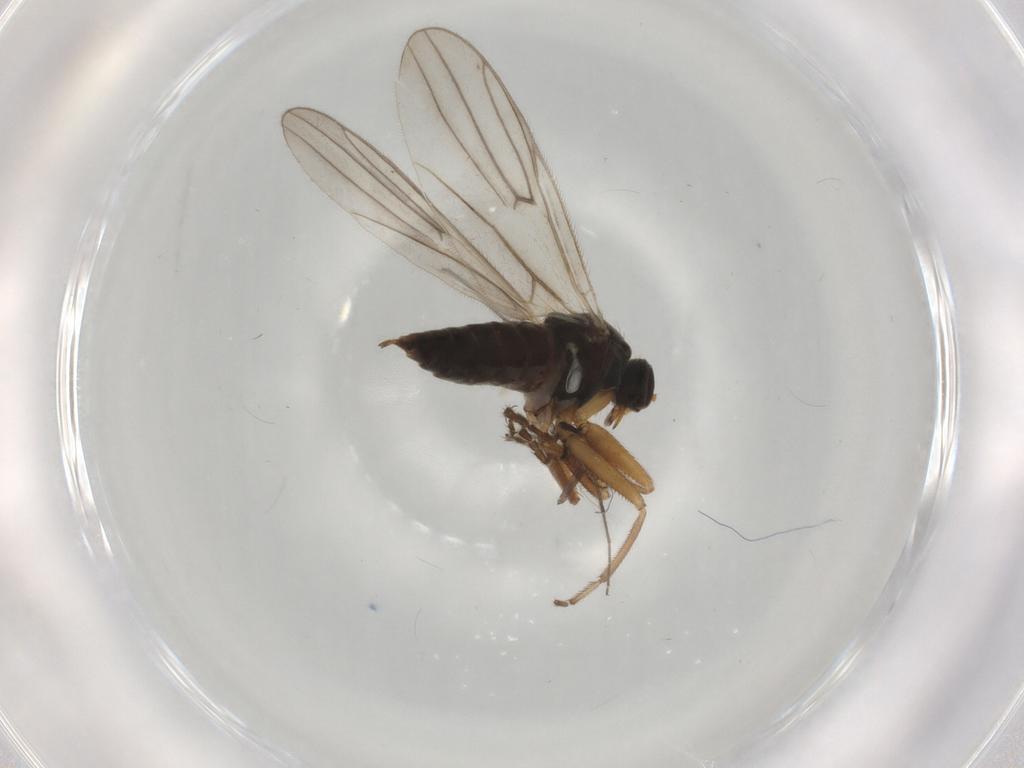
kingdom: Animalia
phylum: Arthropoda
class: Insecta
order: Diptera
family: Hybotidae
